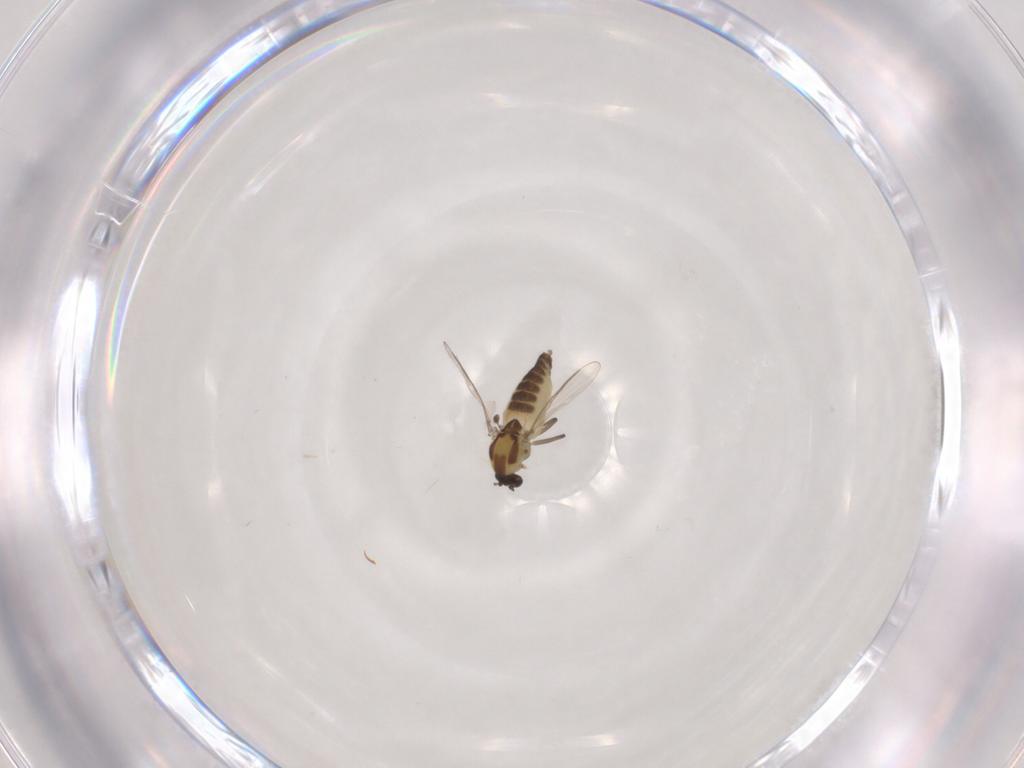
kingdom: Animalia
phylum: Arthropoda
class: Insecta
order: Diptera
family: Chironomidae
